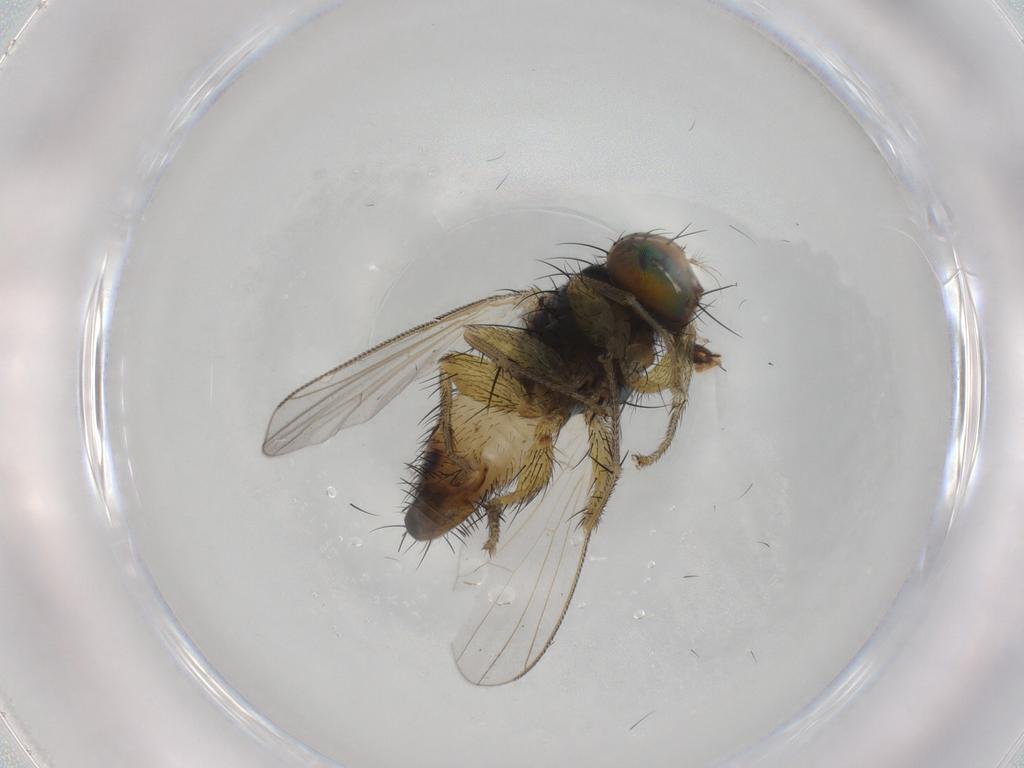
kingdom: Animalia
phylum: Arthropoda
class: Insecta
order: Diptera
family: Muscidae
